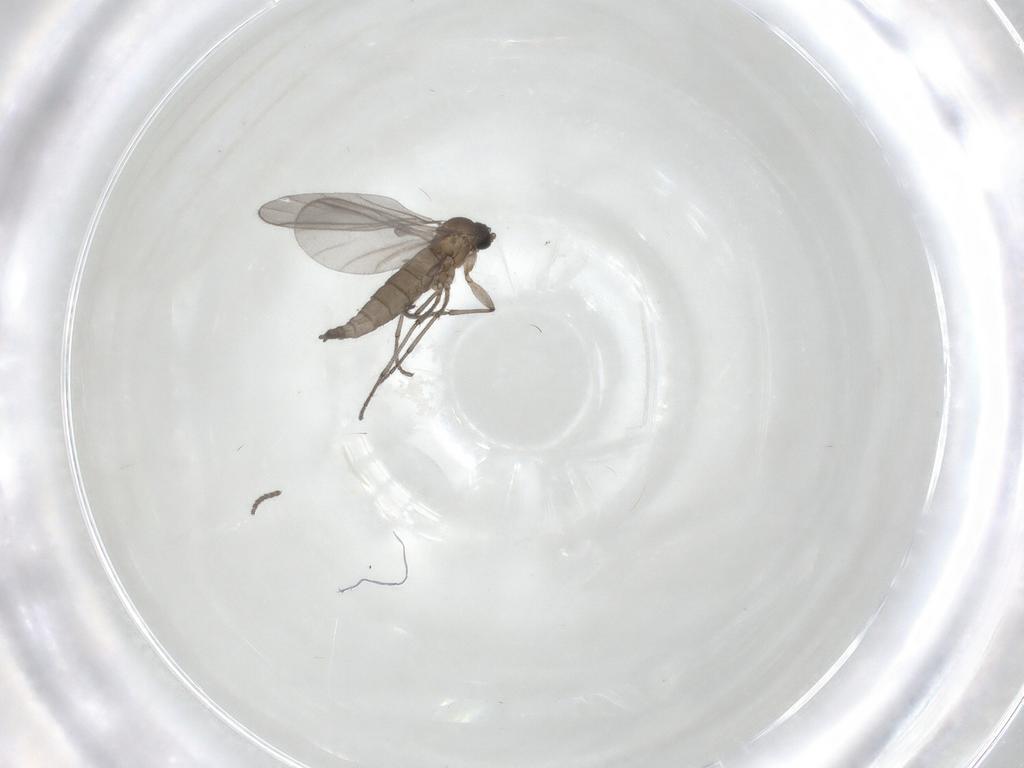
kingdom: Animalia
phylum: Arthropoda
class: Insecta
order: Diptera
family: Sciaridae
